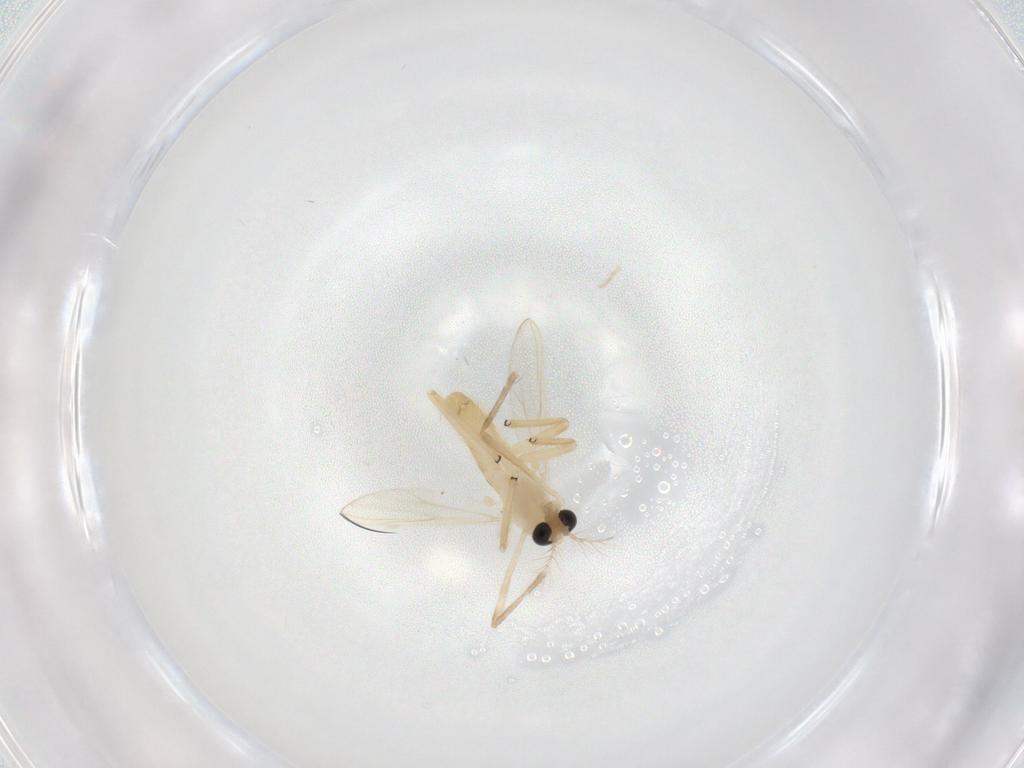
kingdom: Animalia
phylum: Arthropoda
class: Insecta
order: Diptera
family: Chironomidae
